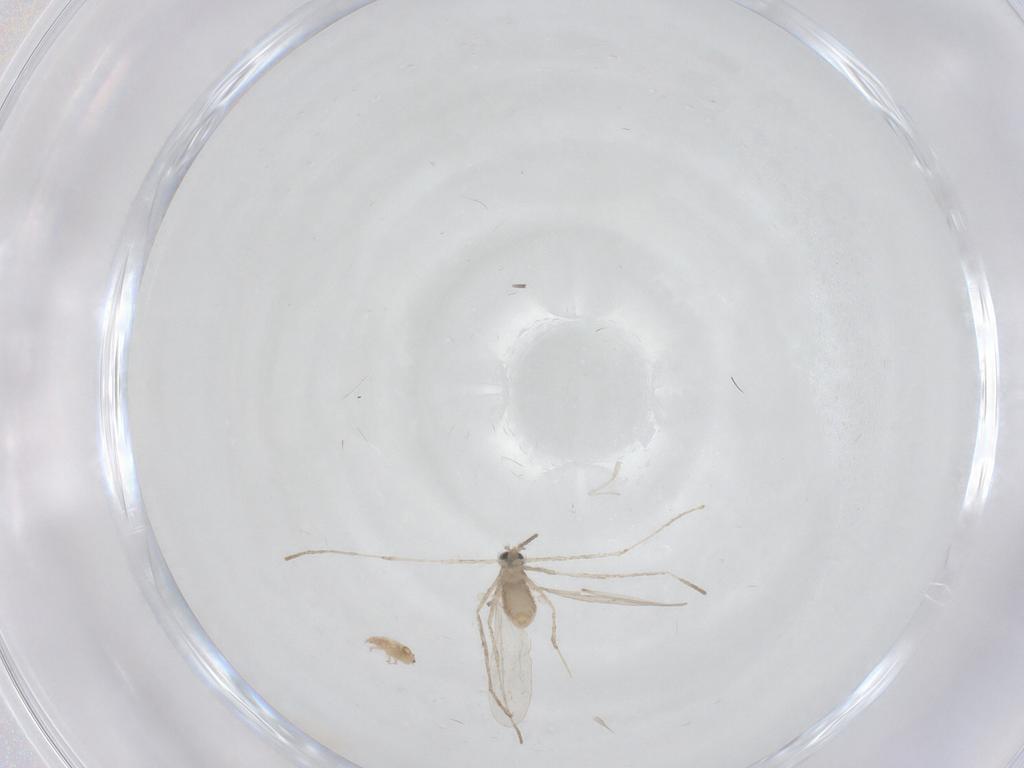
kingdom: Animalia
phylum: Arthropoda
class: Insecta
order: Diptera
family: Cecidomyiidae
